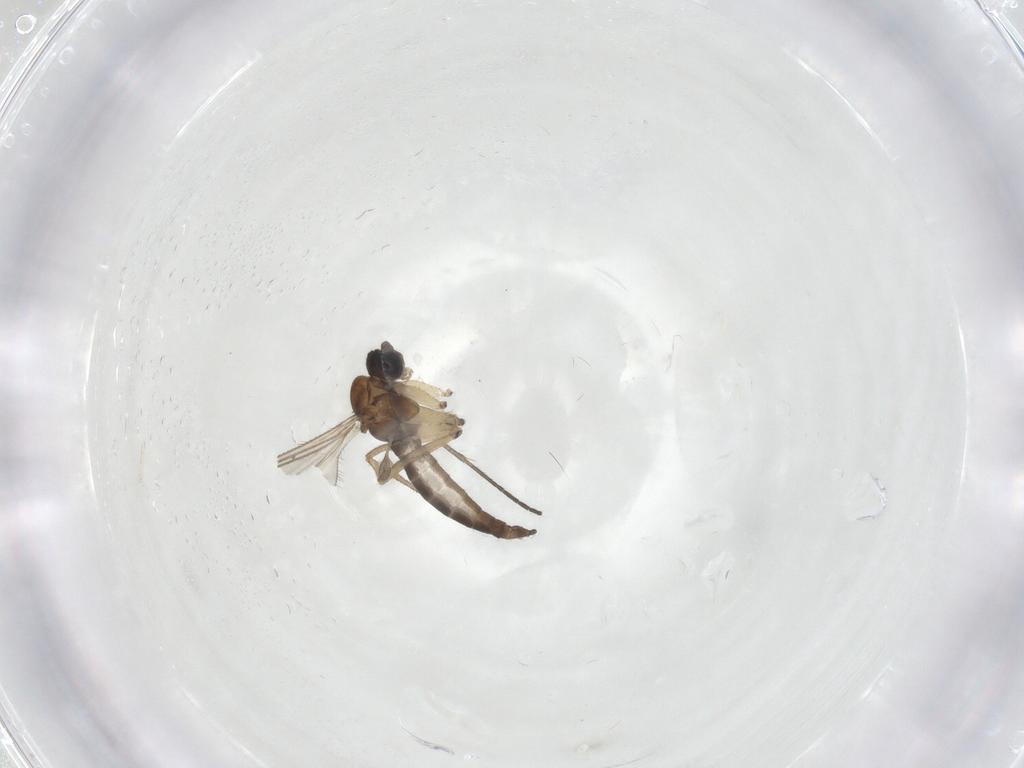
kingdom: Animalia
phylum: Arthropoda
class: Insecta
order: Diptera
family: Sciaridae
